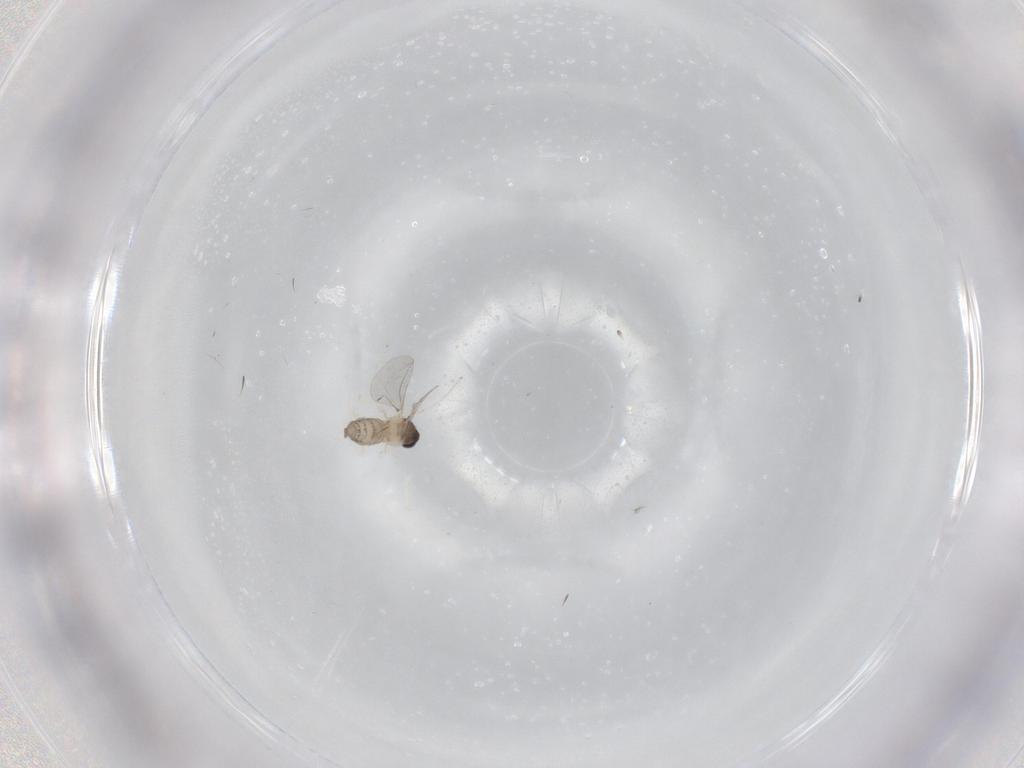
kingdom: Animalia
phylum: Arthropoda
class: Insecta
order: Diptera
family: Cecidomyiidae
